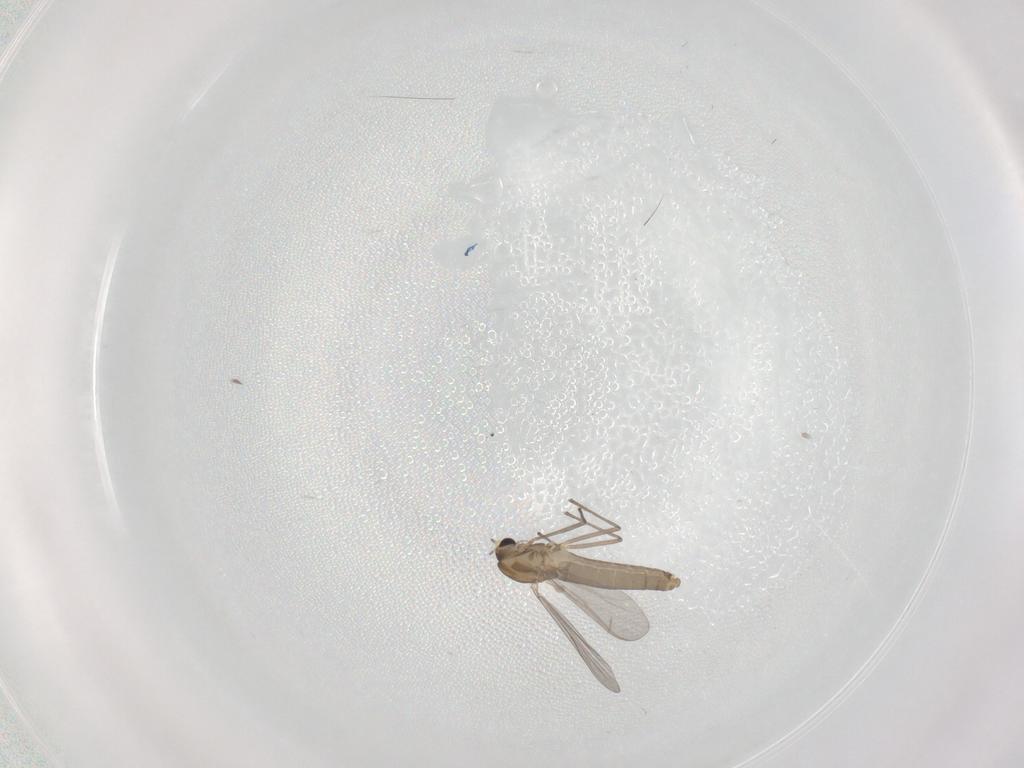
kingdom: Animalia
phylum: Arthropoda
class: Insecta
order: Diptera
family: Chironomidae
